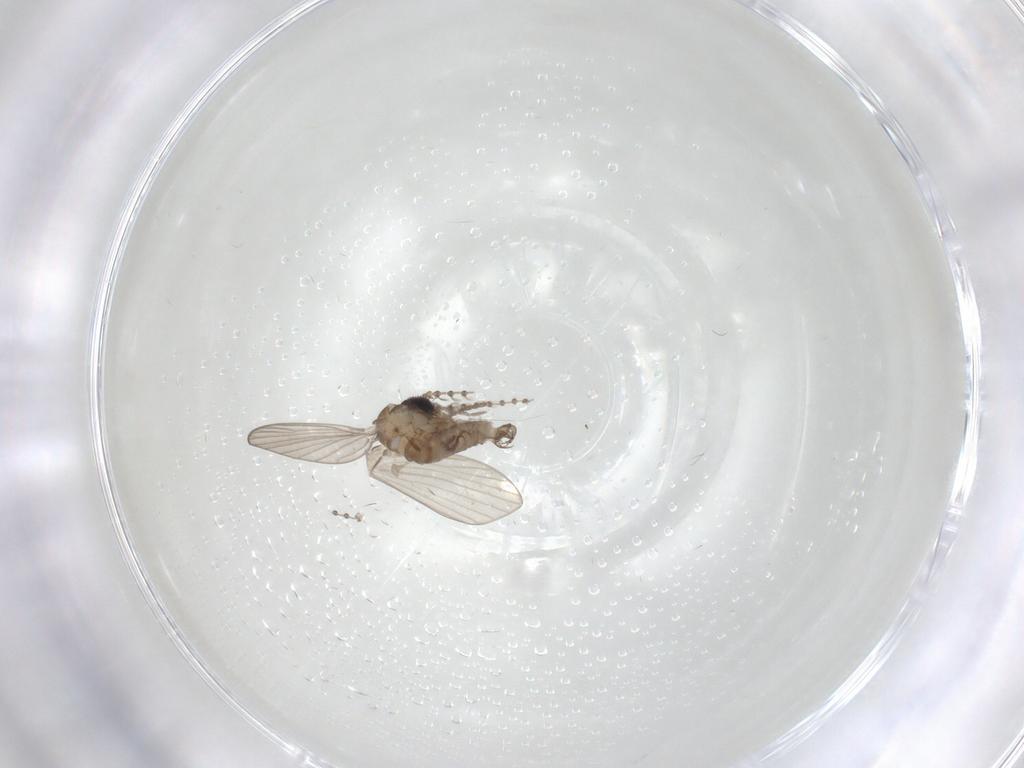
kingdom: Animalia
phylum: Arthropoda
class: Insecta
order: Diptera
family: Psychodidae
